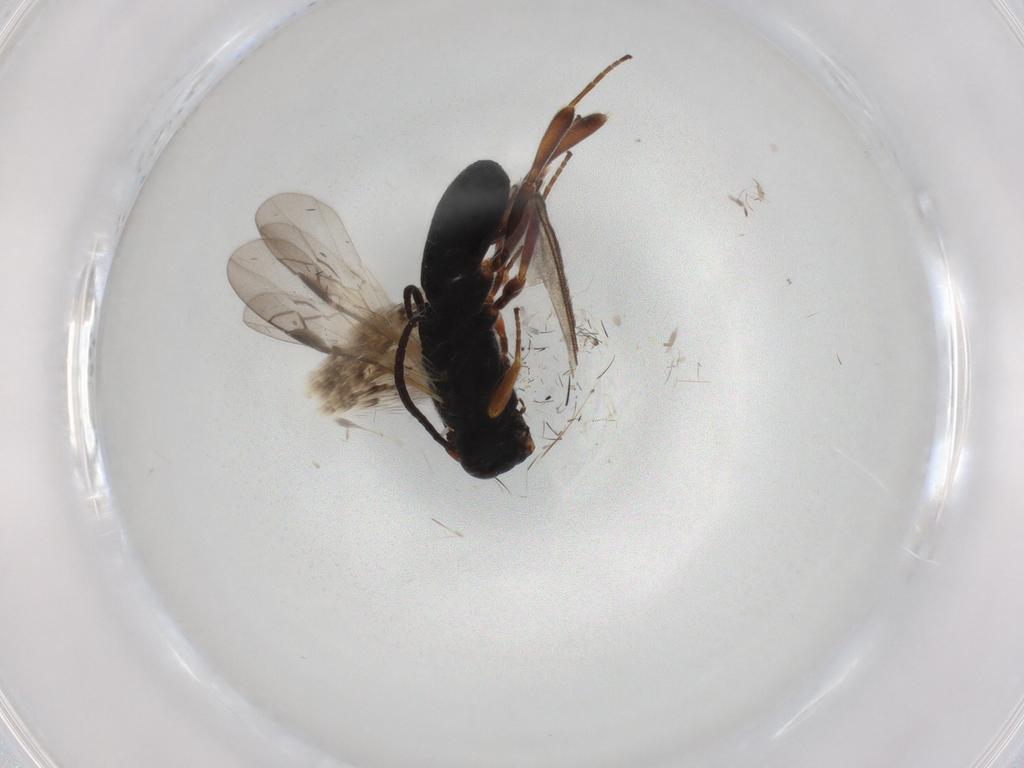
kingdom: Animalia
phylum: Arthropoda
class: Insecta
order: Hymenoptera
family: Braconidae
